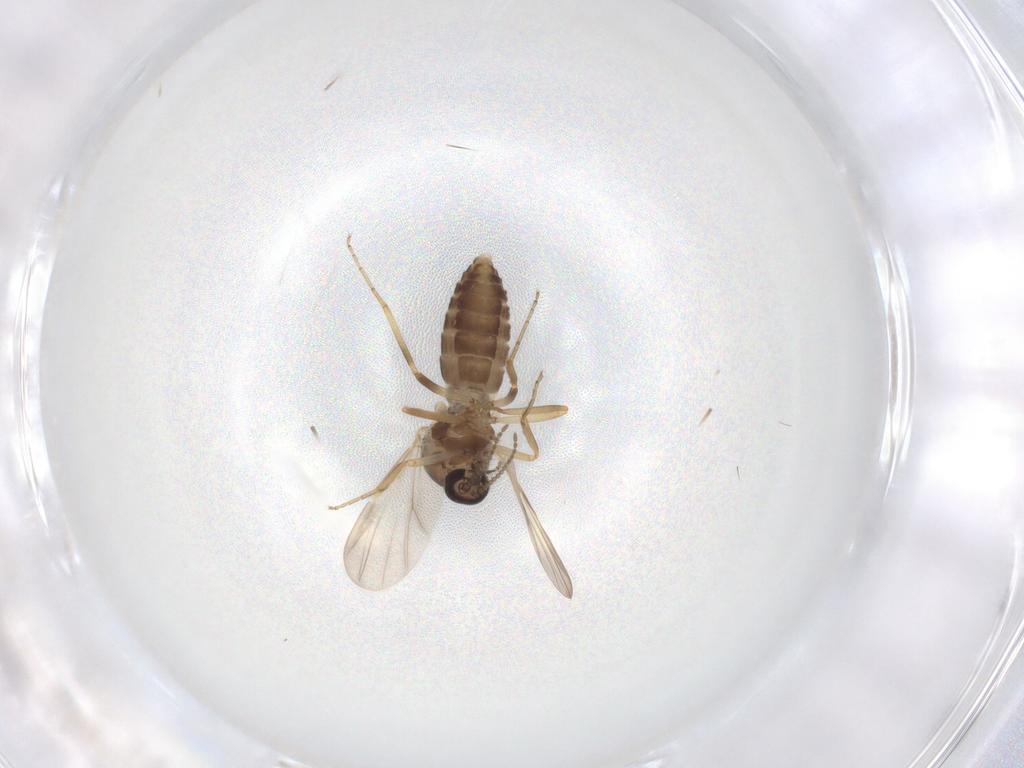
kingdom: Animalia
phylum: Arthropoda
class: Insecta
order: Diptera
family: Ceratopogonidae
